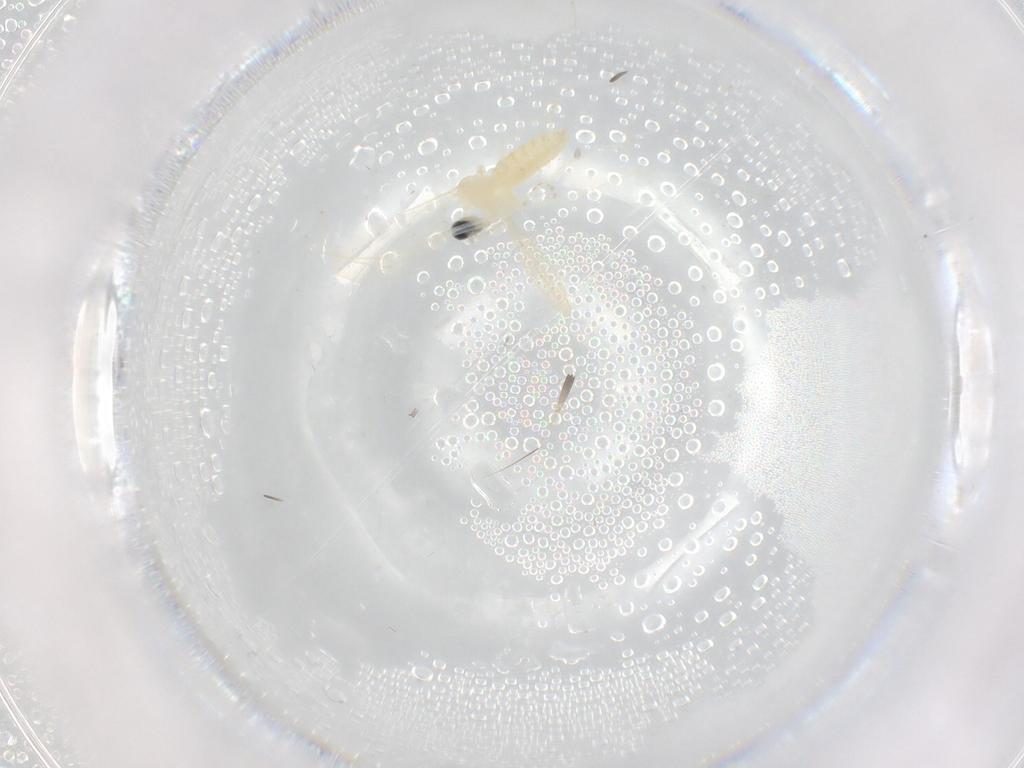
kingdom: Animalia
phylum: Arthropoda
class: Insecta
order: Diptera
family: Cecidomyiidae
